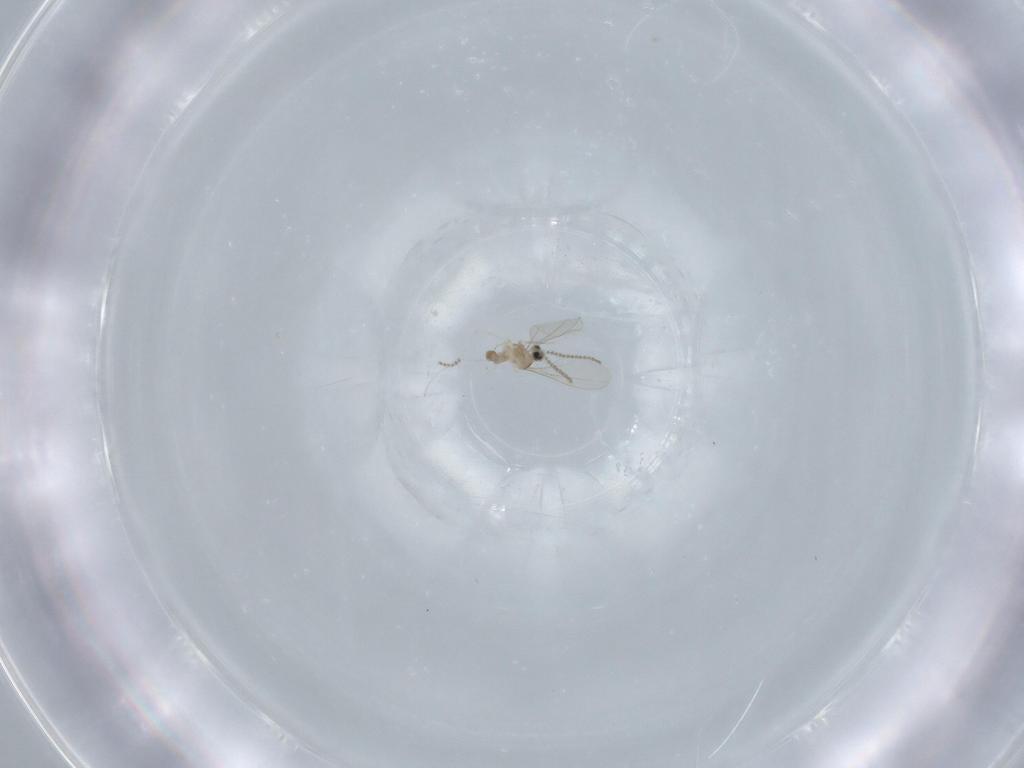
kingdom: Animalia
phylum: Arthropoda
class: Insecta
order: Diptera
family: Cecidomyiidae
